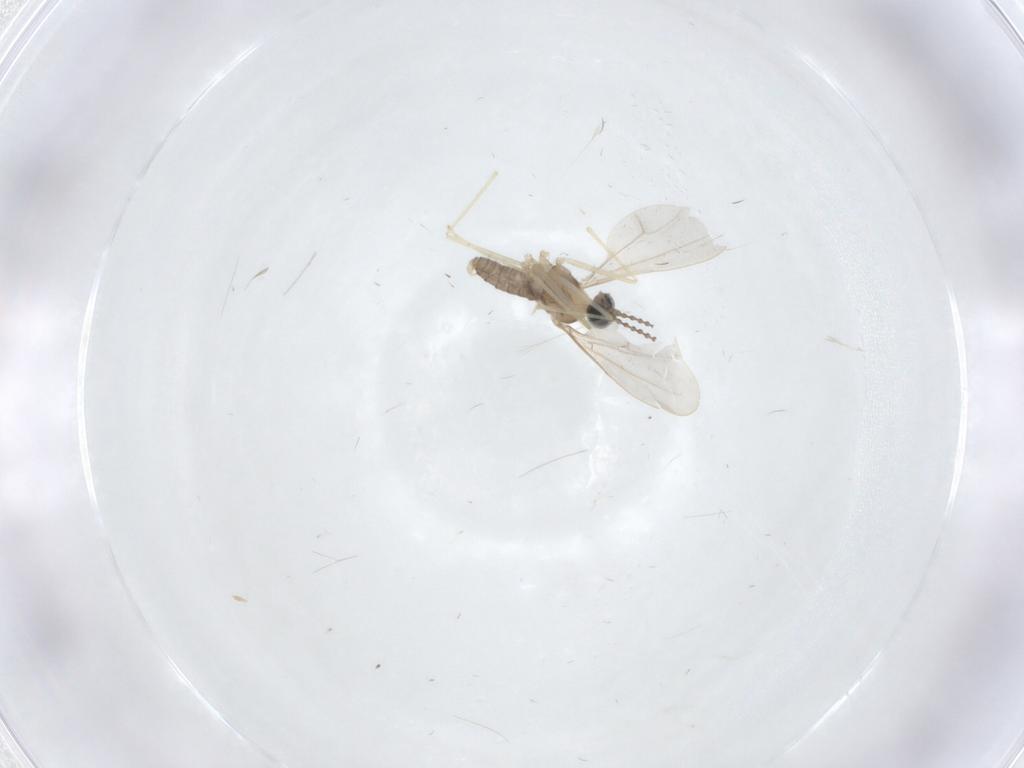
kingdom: Animalia
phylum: Arthropoda
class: Insecta
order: Diptera
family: Cecidomyiidae
